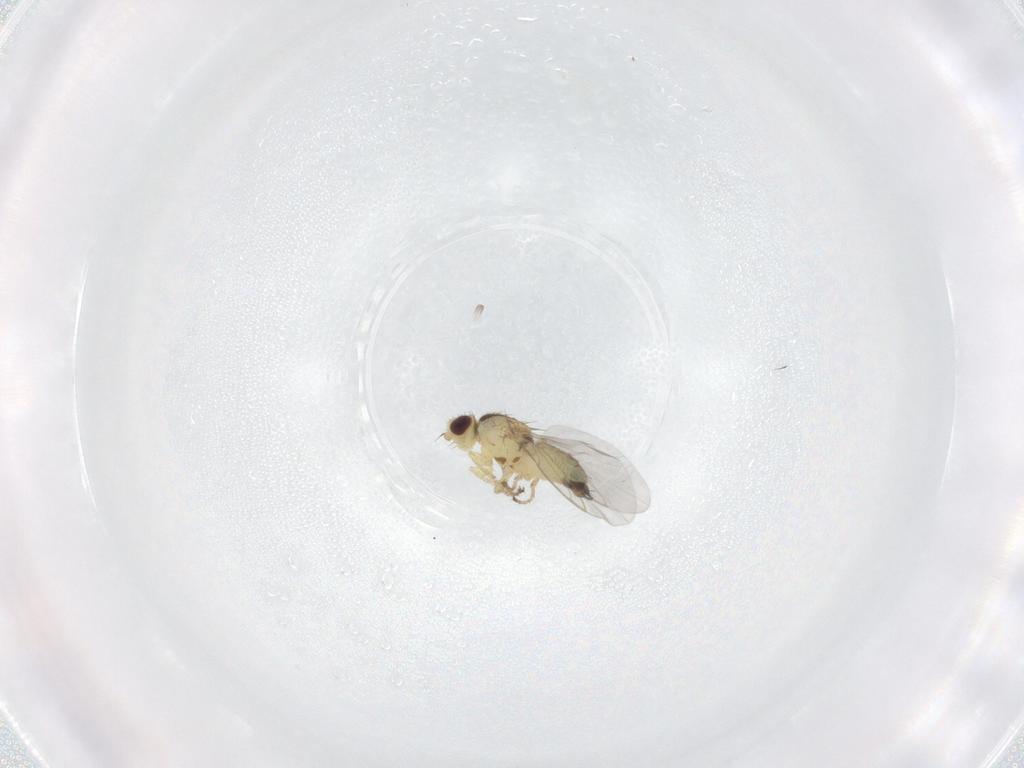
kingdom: Animalia
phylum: Arthropoda
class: Insecta
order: Diptera
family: Agromyzidae
